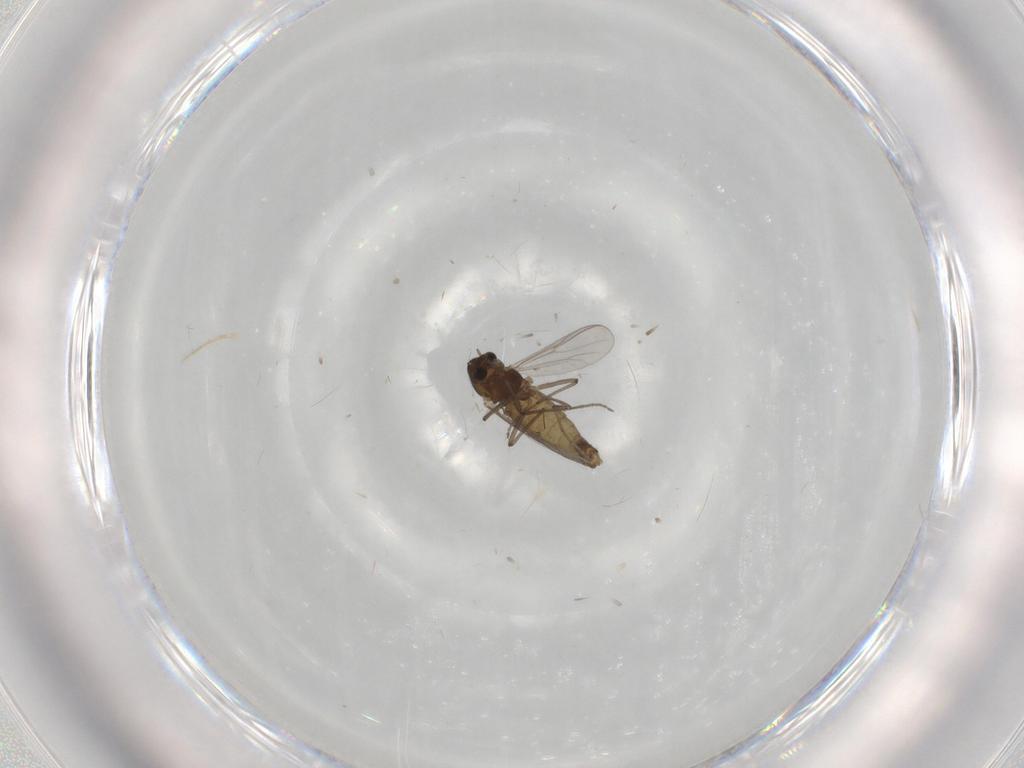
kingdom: Animalia
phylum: Arthropoda
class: Insecta
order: Diptera
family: Chironomidae
